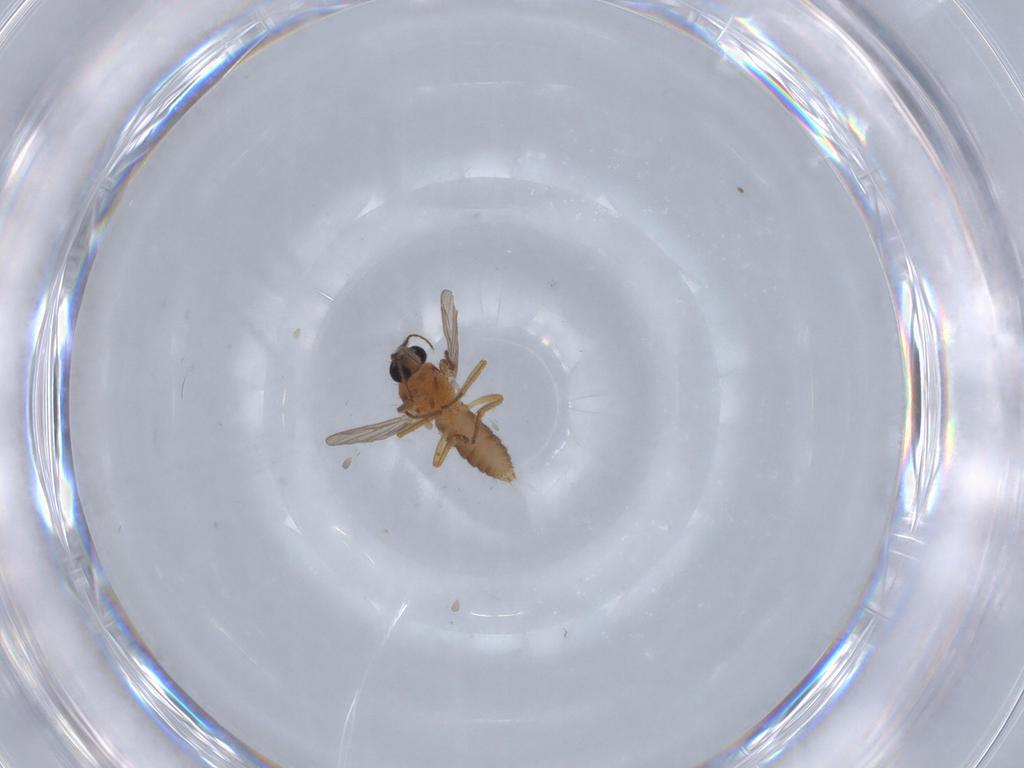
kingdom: Animalia
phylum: Arthropoda
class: Insecta
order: Diptera
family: Ceratopogonidae
